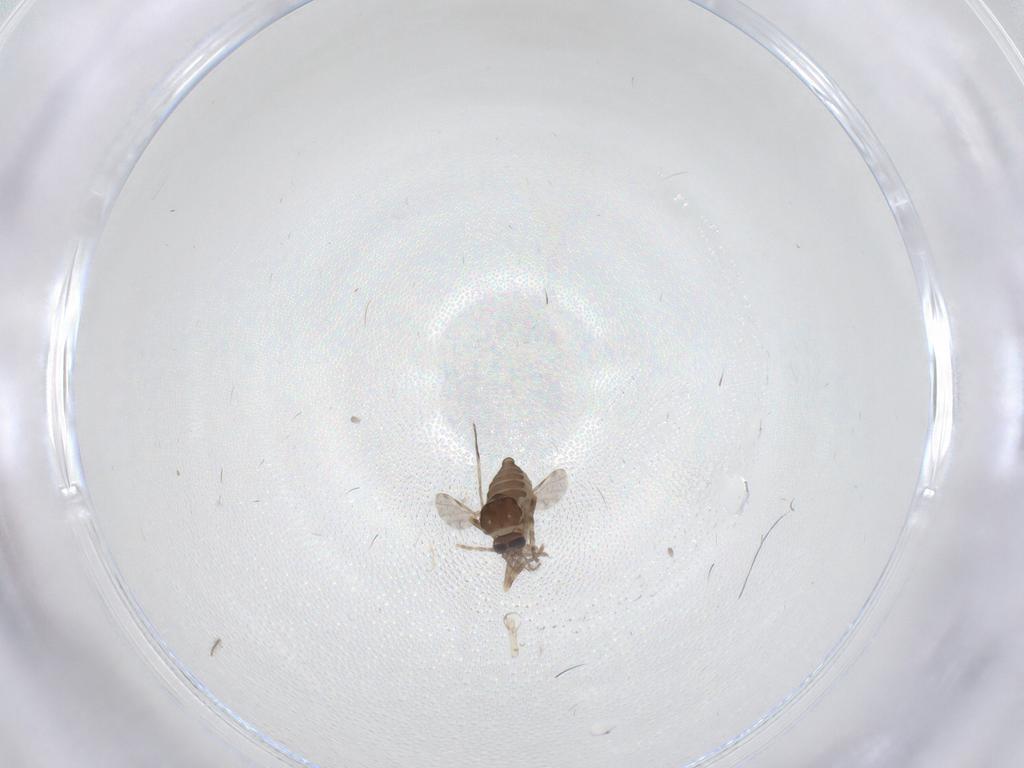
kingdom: Animalia
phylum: Arthropoda
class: Insecta
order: Diptera
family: Ceratopogonidae
